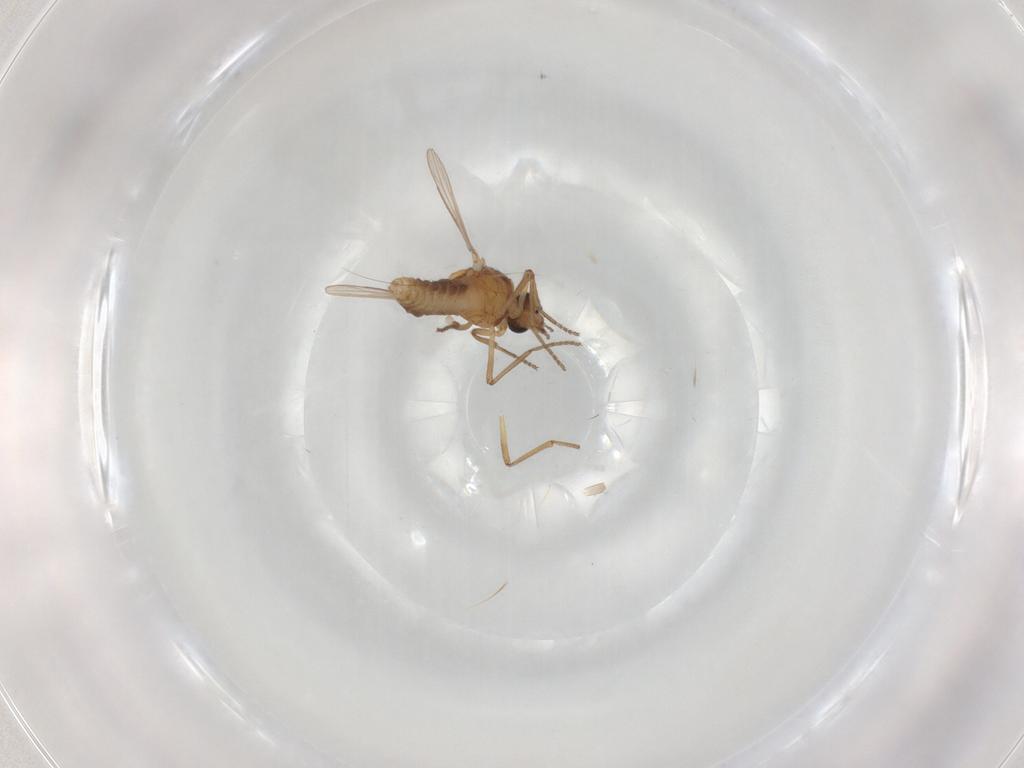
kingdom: Animalia
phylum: Arthropoda
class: Insecta
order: Diptera
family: Ceratopogonidae
